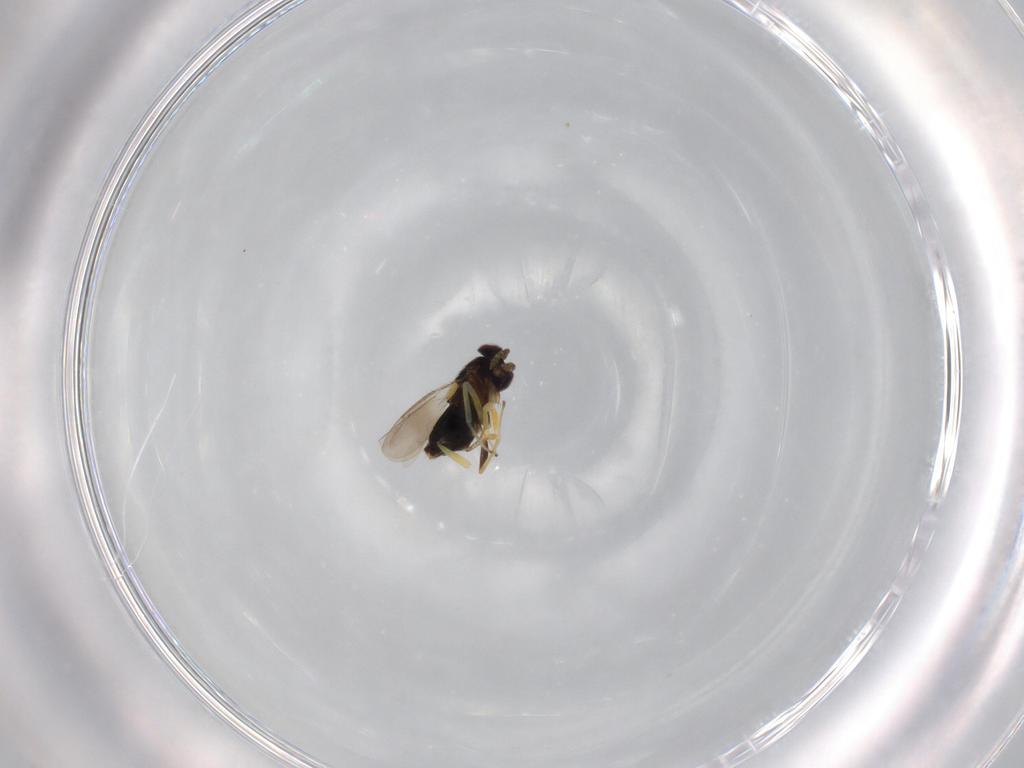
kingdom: Animalia
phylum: Arthropoda
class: Insecta
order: Hymenoptera
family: Aphelinidae
